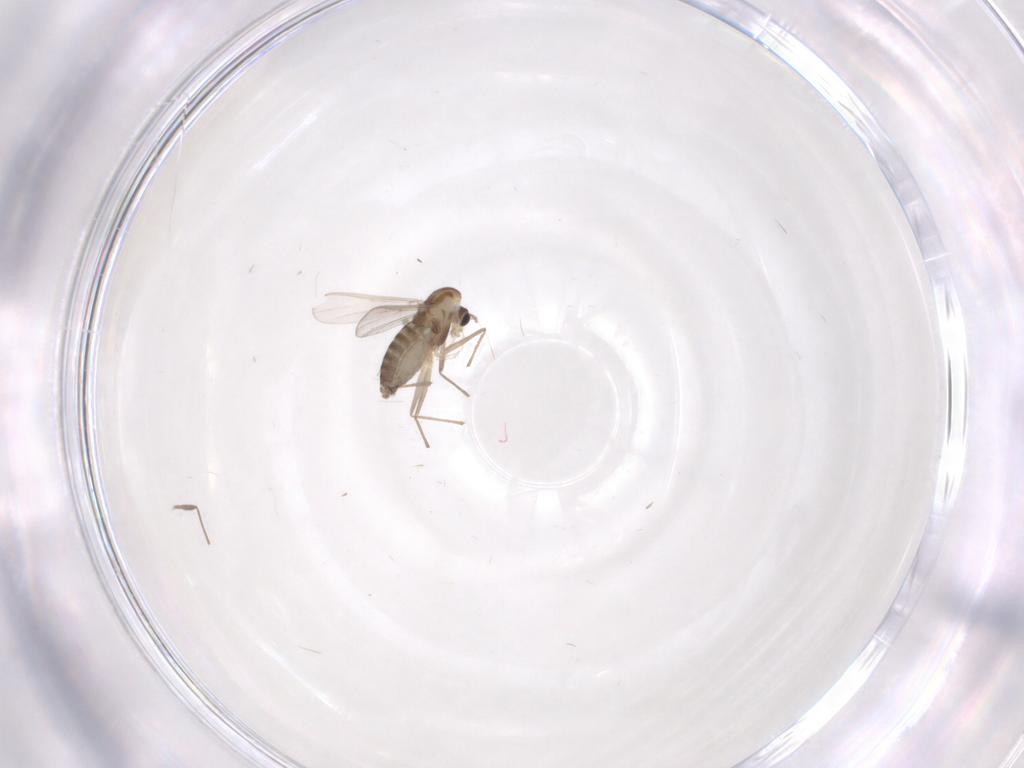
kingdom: Animalia
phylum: Arthropoda
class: Insecta
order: Diptera
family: Chironomidae
